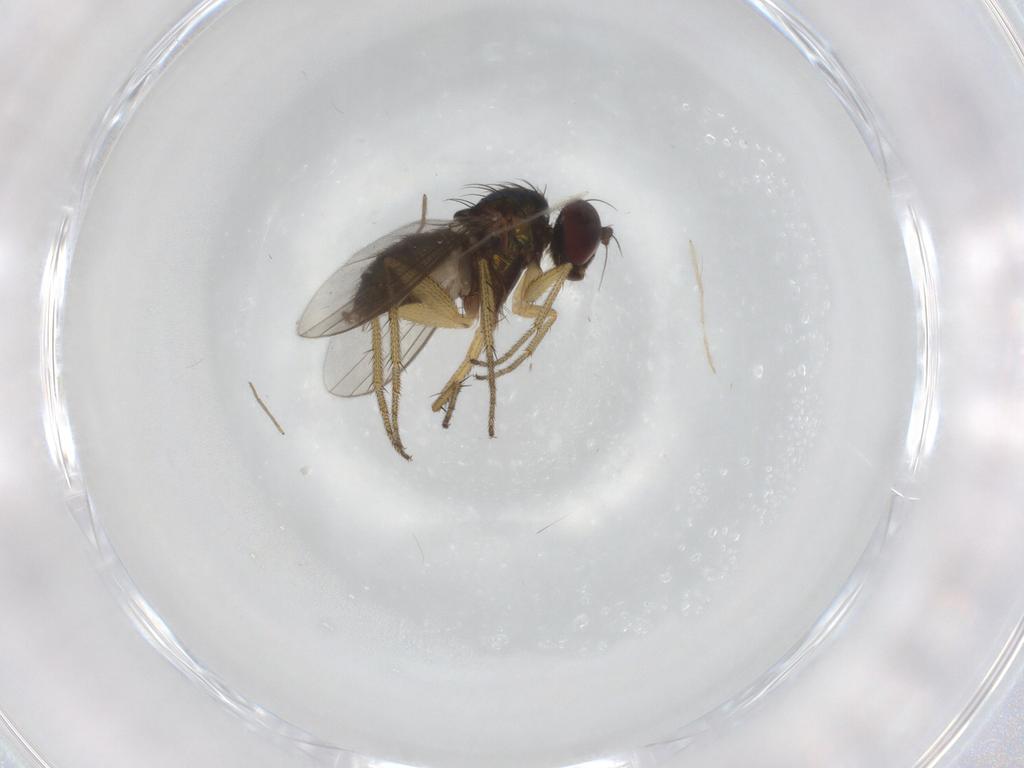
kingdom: Animalia
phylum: Arthropoda
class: Insecta
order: Diptera
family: Sciaridae
